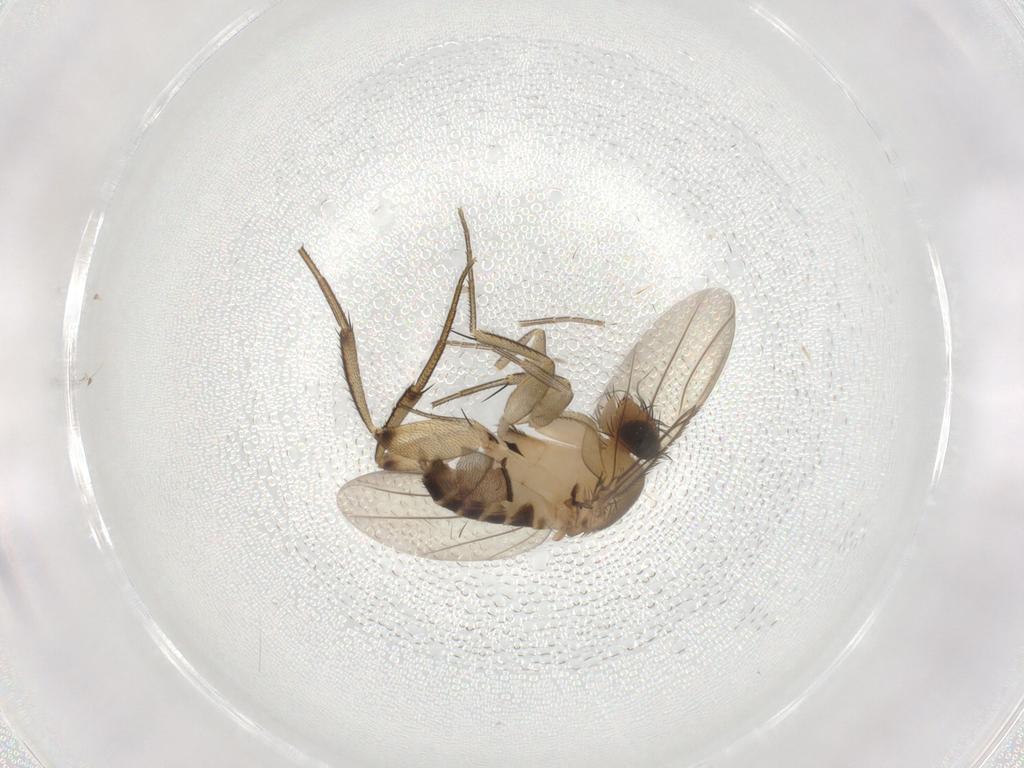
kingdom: Animalia
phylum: Arthropoda
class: Insecta
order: Diptera
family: Phoridae
